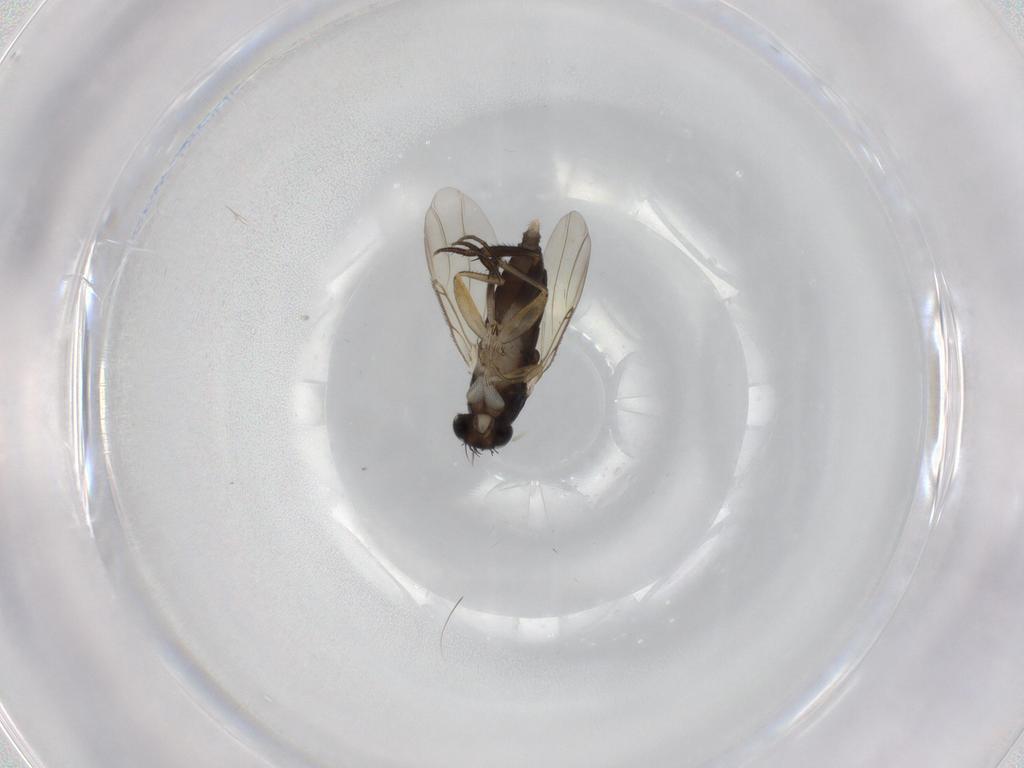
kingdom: Animalia
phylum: Arthropoda
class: Insecta
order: Diptera
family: Phoridae
